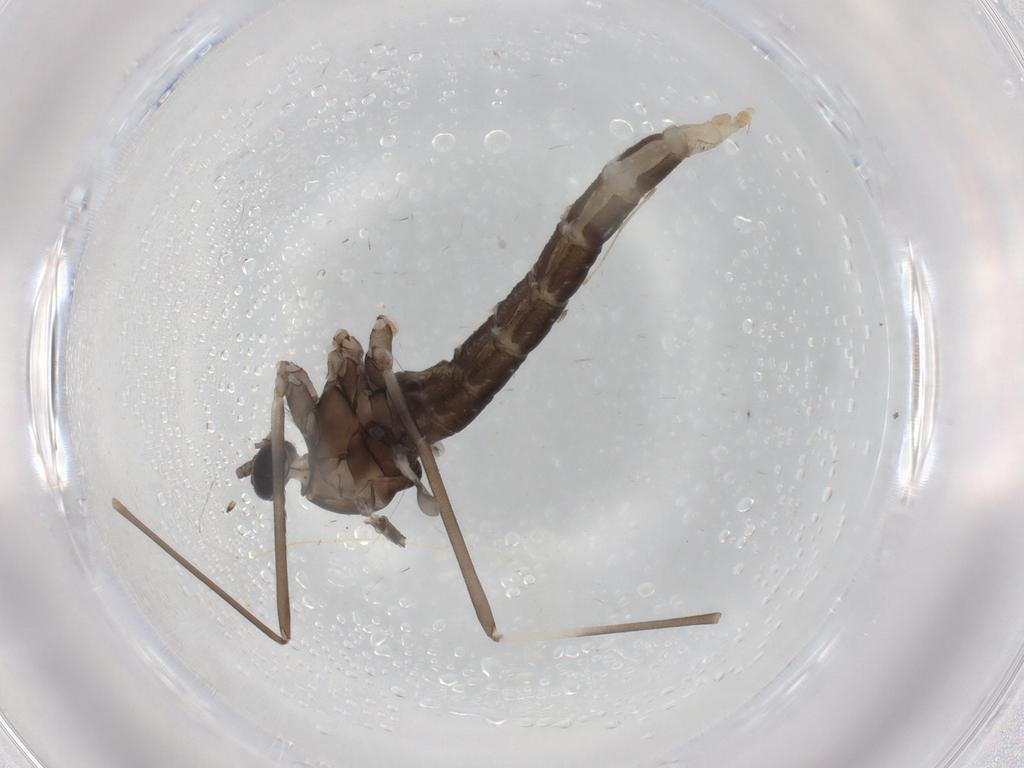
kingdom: Animalia
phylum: Arthropoda
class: Insecta
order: Diptera
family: Cecidomyiidae
